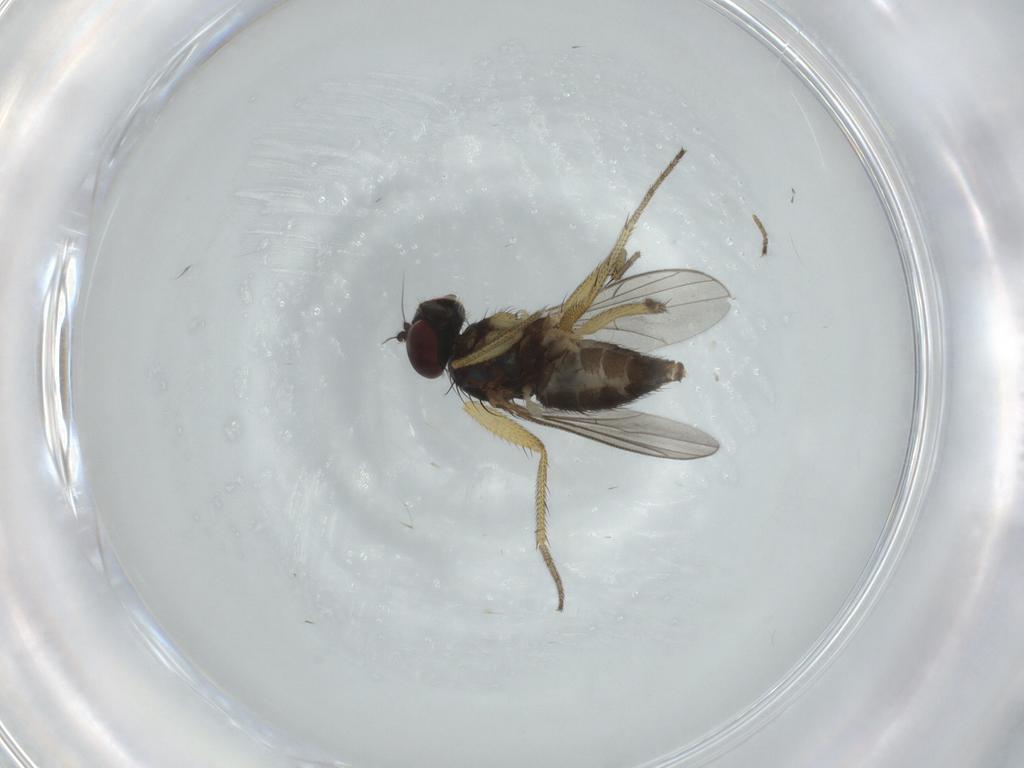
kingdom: Animalia
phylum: Arthropoda
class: Insecta
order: Diptera
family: Dolichopodidae
